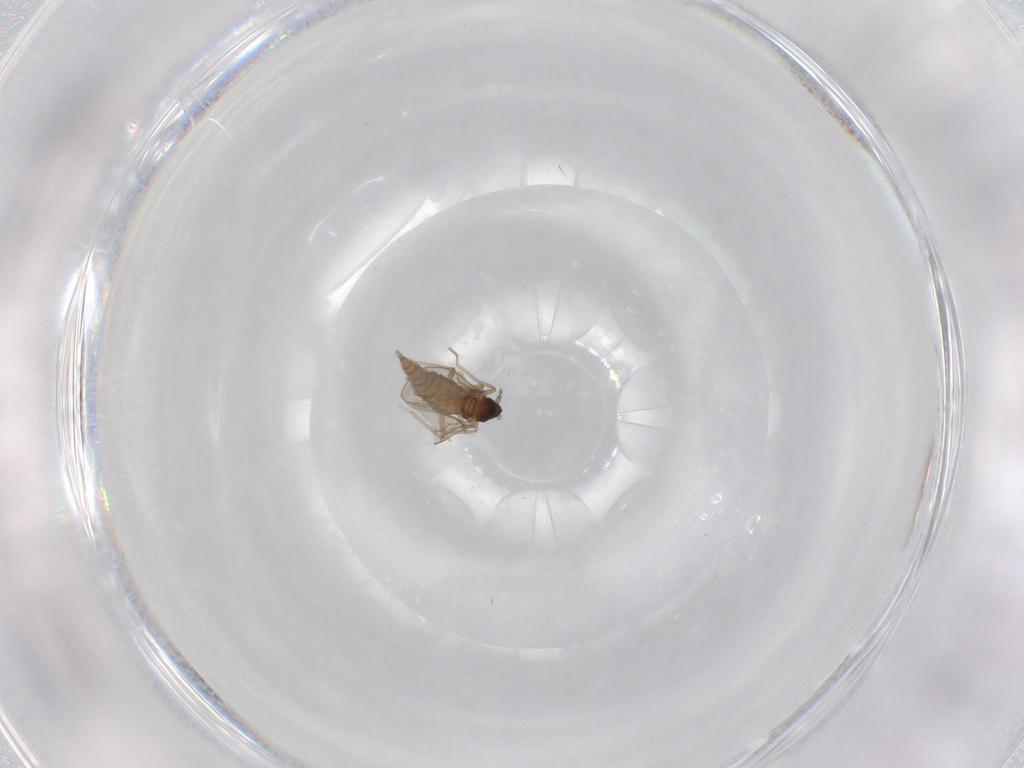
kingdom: Animalia
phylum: Arthropoda
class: Insecta
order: Diptera
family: Cecidomyiidae
